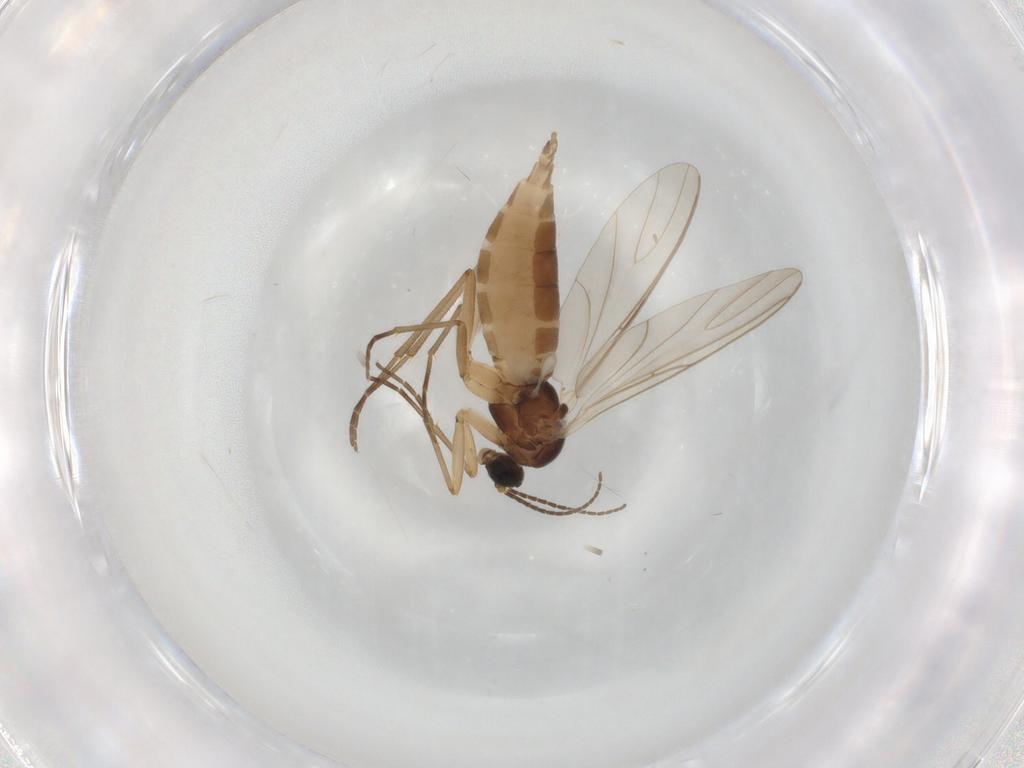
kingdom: Animalia
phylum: Arthropoda
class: Insecta
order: Diptera
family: Sciaridae
